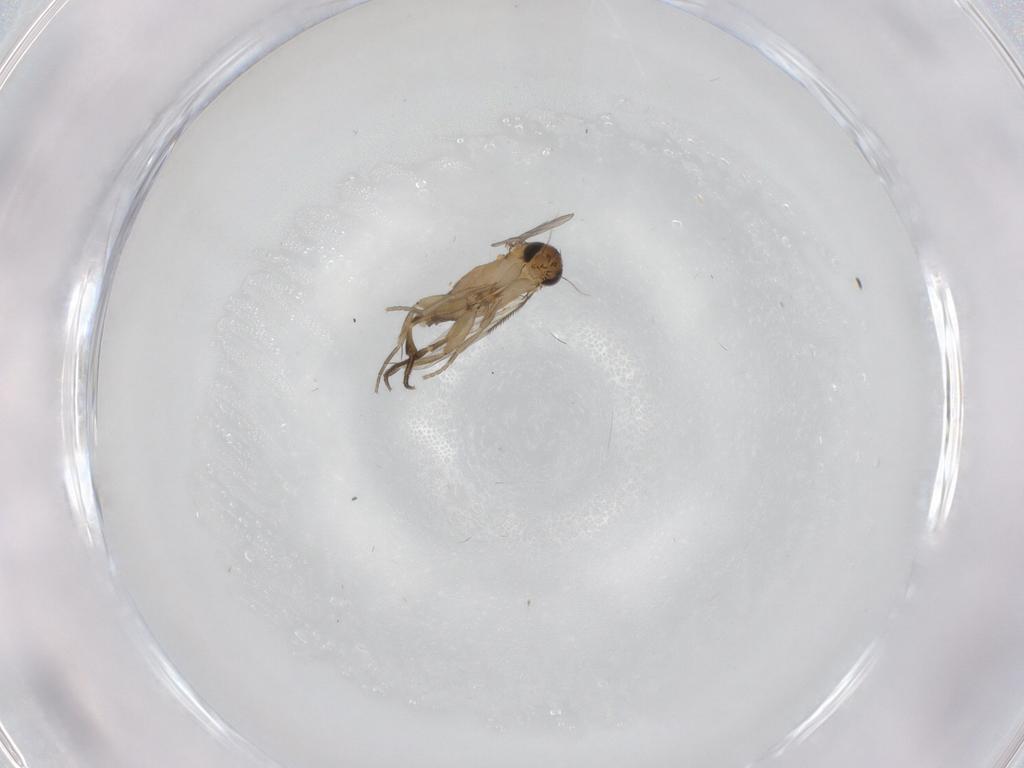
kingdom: Animalia
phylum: Arthropoda
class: Insecta
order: Diptera
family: Phoridae
